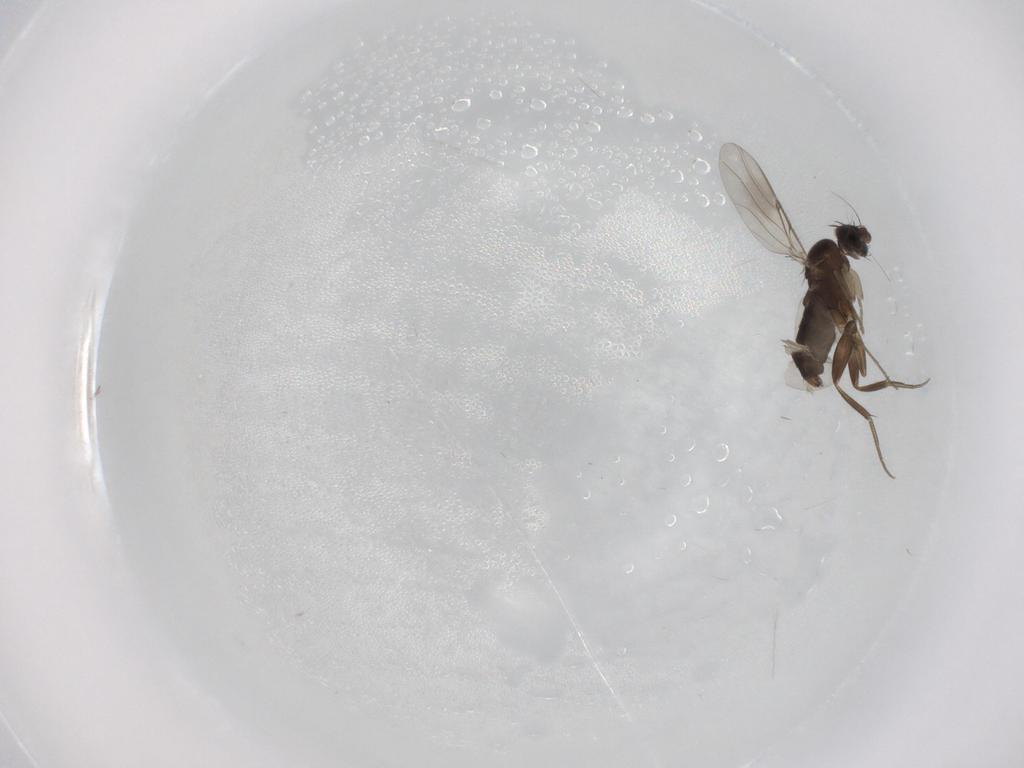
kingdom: Animalia
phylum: Arthropoda
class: Insecta
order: Diptera
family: Phoridae
